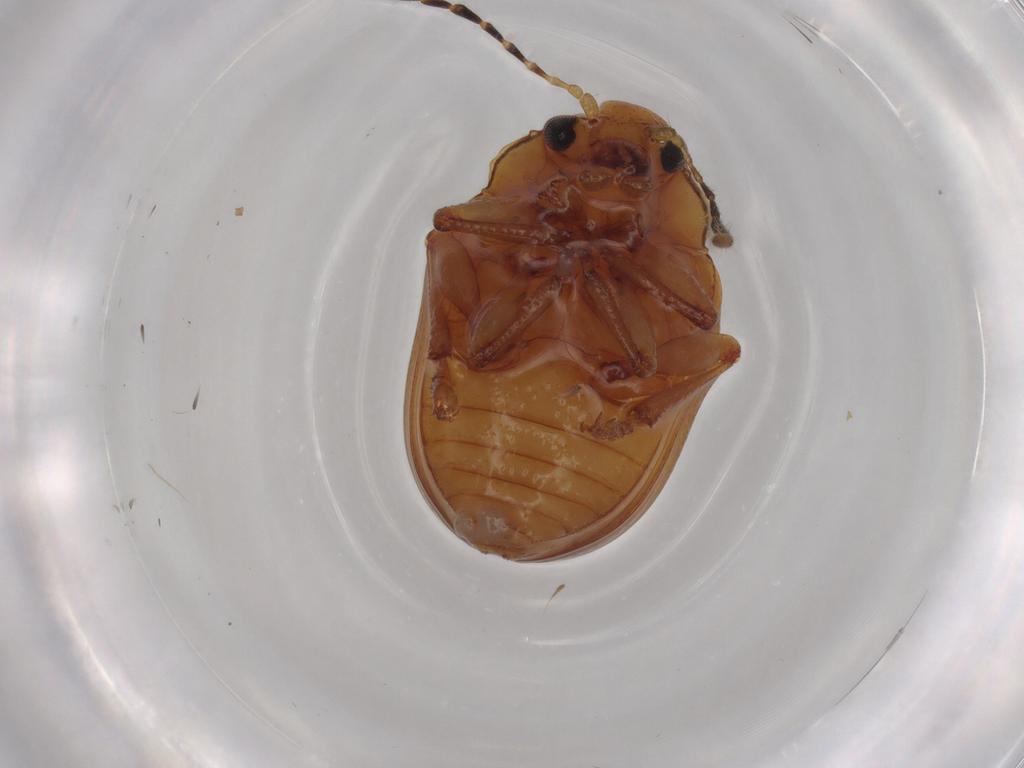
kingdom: Animalia
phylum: Arthropoda
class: Insecta
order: Coleoptera
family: Chrysomelidae
